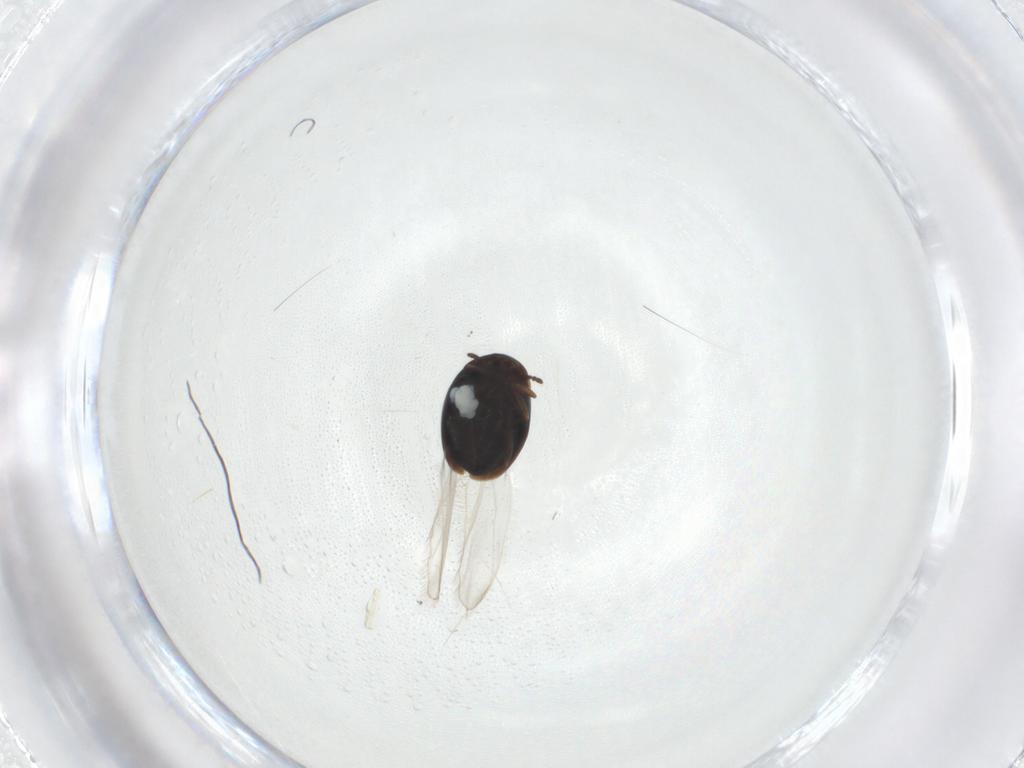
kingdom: Animalia
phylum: Arthropoda
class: Insecta
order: Coleoptera
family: Corylophidae
